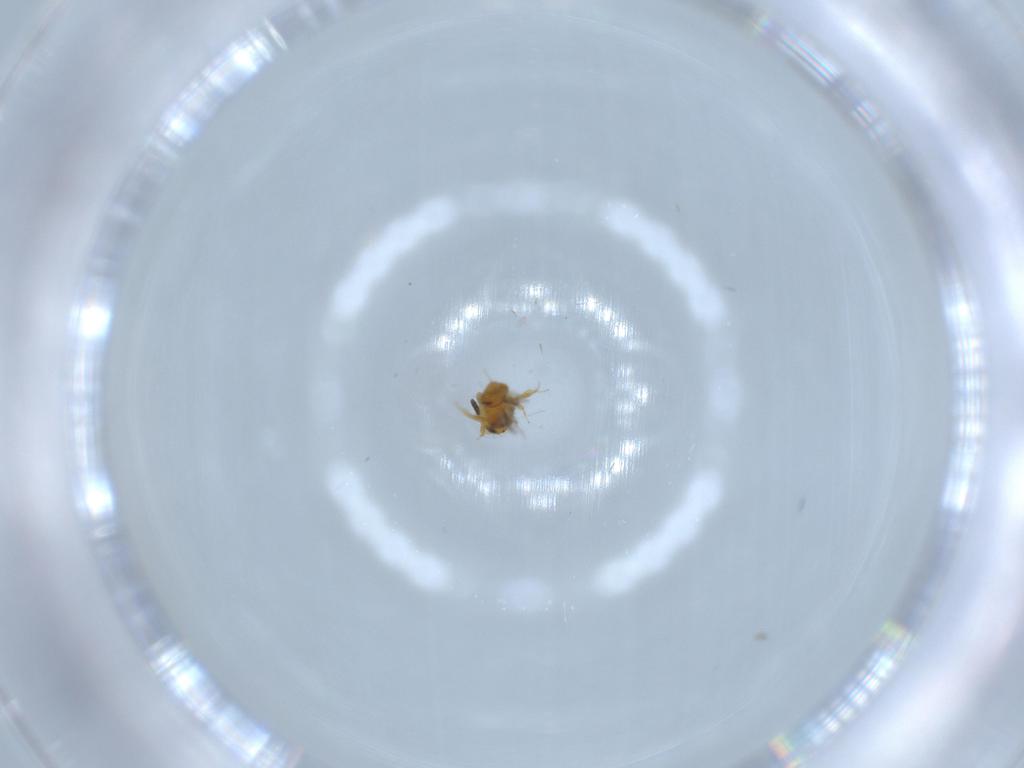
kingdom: Animalia
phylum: Arthropoda
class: Insecta
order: Hymenoptera
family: Scelionidae
